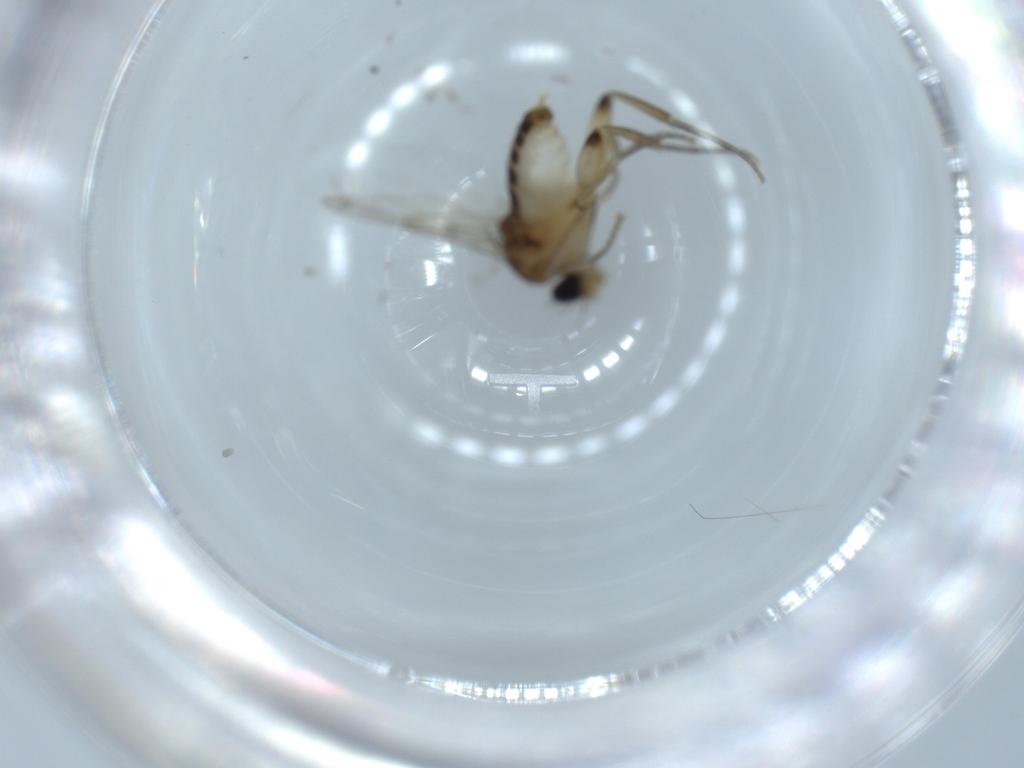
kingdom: Animalia
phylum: Arthropoda
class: Insecta
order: Diptera
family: Phoridae
